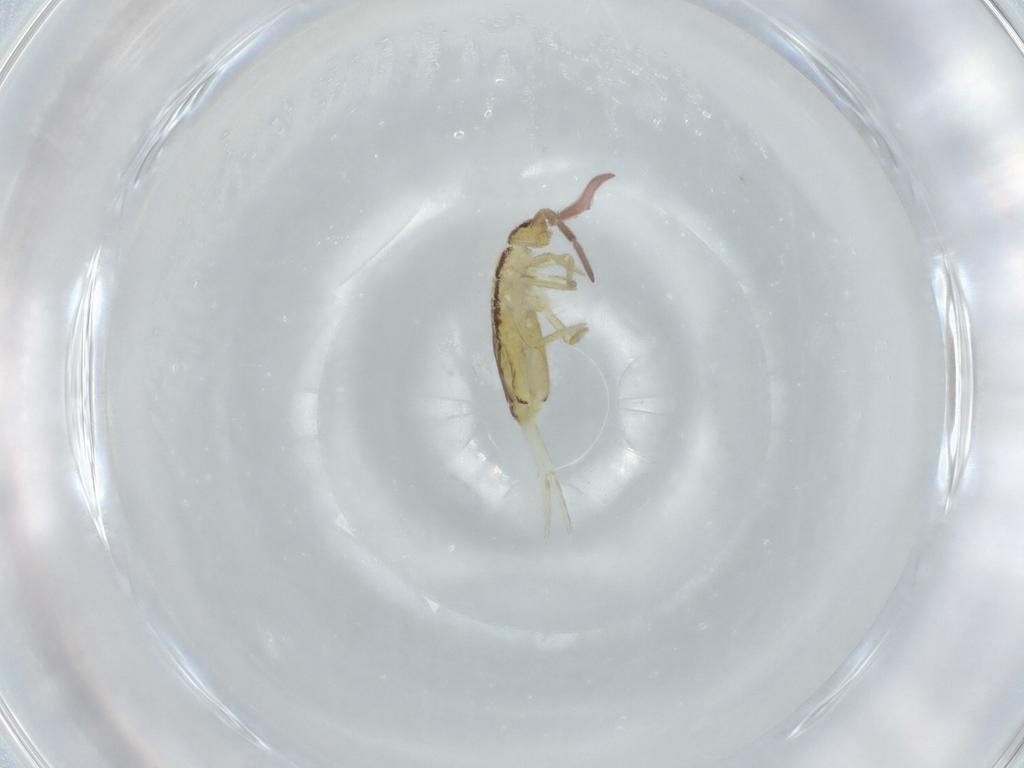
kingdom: Animalia
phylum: Arthropoda
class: Collembola
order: Entomobryomorpha
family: Entomobryidae
